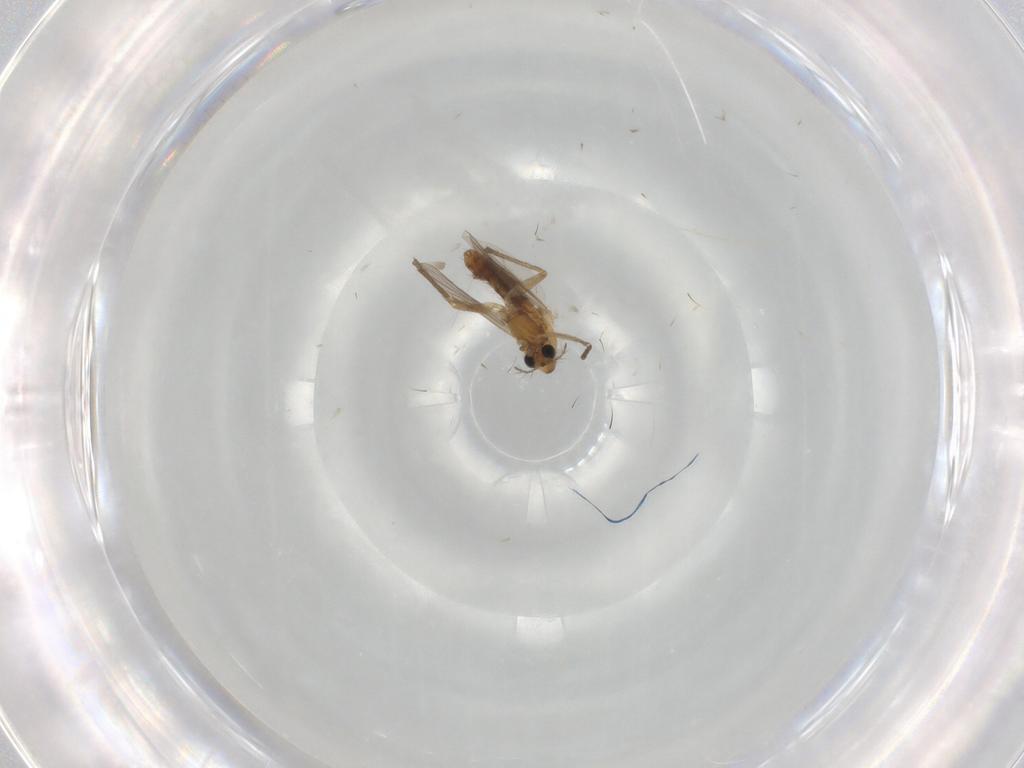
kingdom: Animalia
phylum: Arthropoda
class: Insecta
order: Diptera
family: Chironomidae
